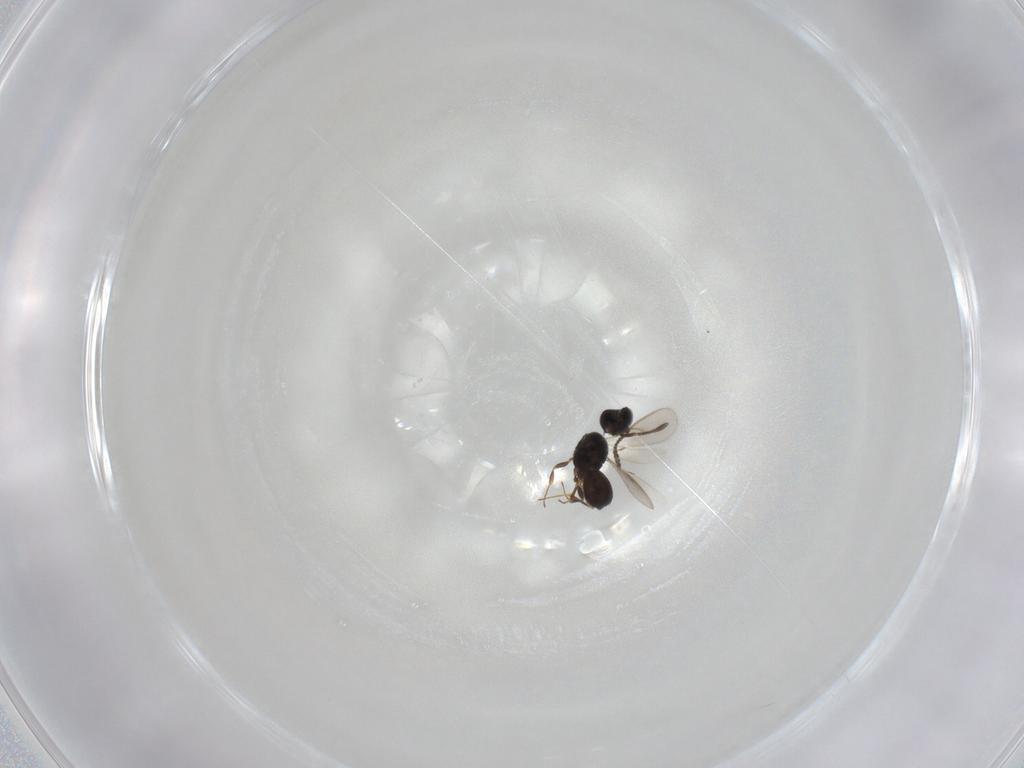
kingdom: Animalia
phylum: Arthropoda
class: Insecta
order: Hymenoptera
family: Scelionidae
